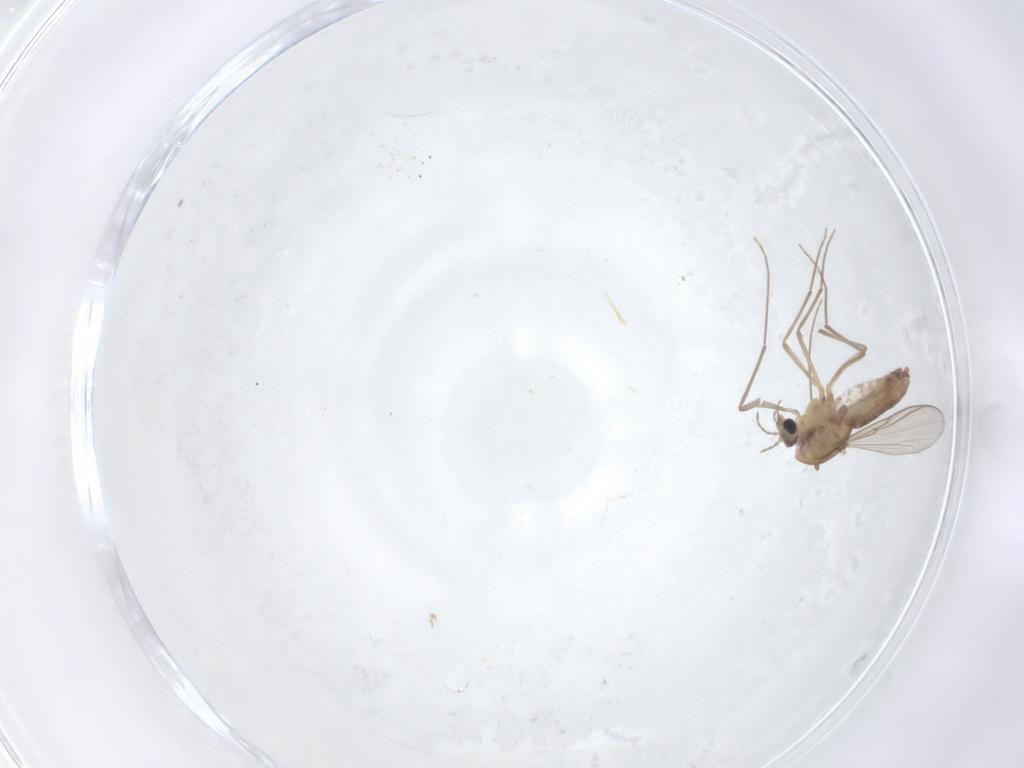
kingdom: Animalia
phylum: Arthropoda
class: Insecta
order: Diptera
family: Chironomidae
